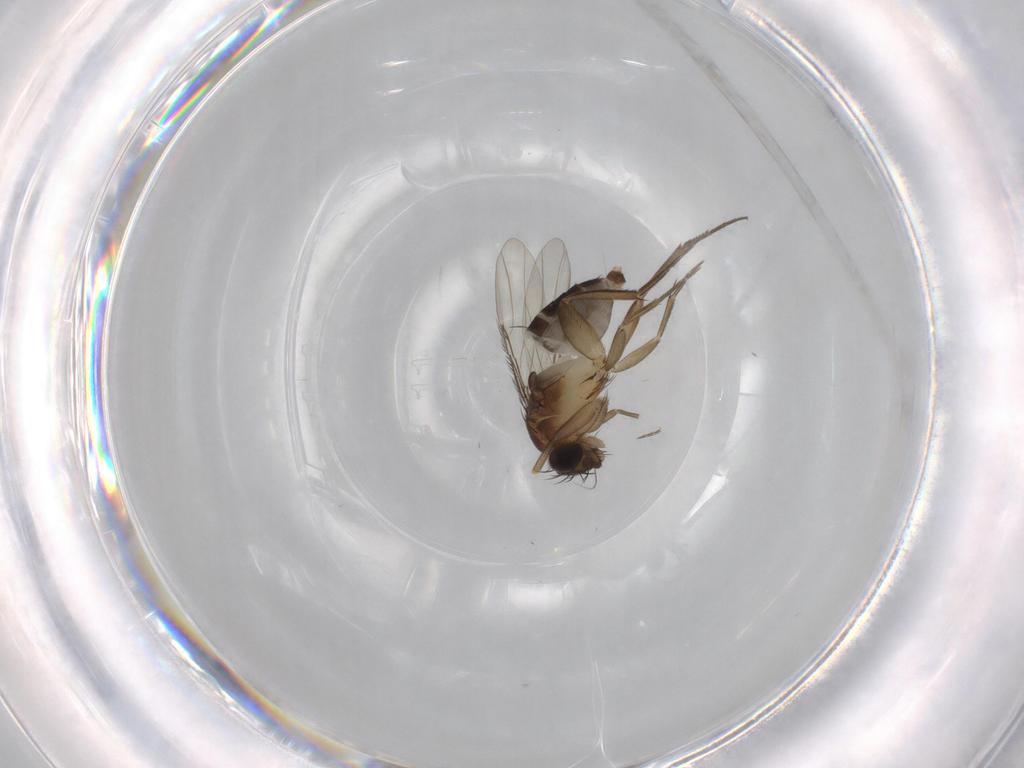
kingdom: Animalia
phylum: Arthropoda
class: Insecta
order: Diptera
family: Phoridae
